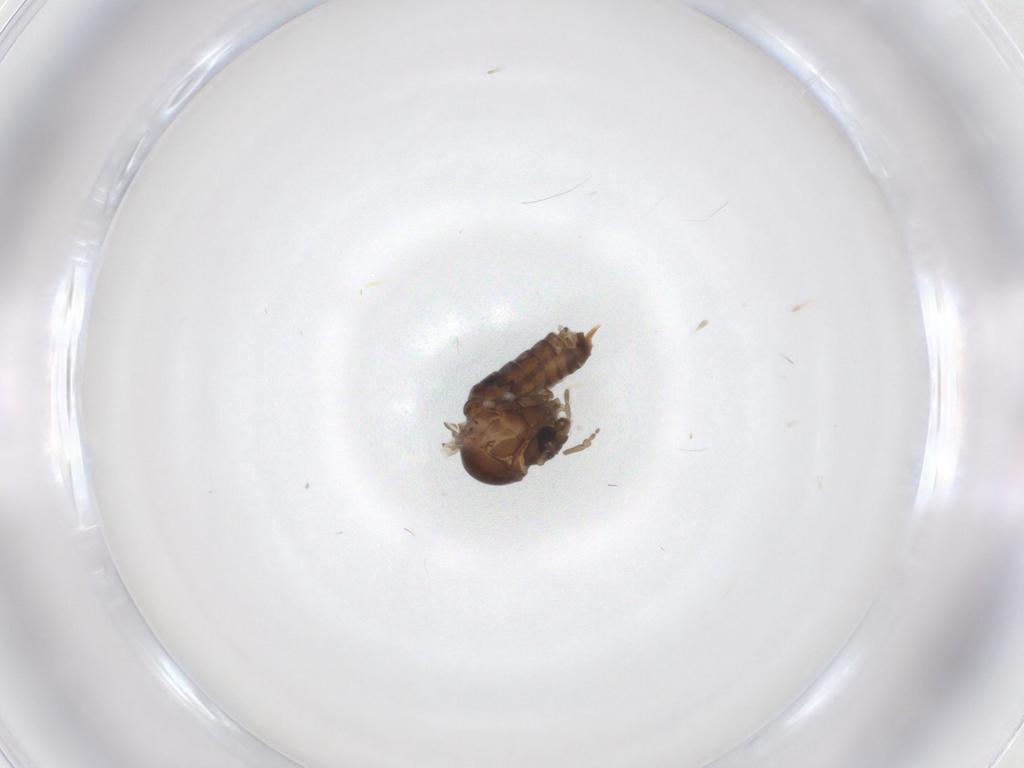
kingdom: Animalia
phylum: Arthropoda
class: Insecta
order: Diptera
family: Psychodidae
